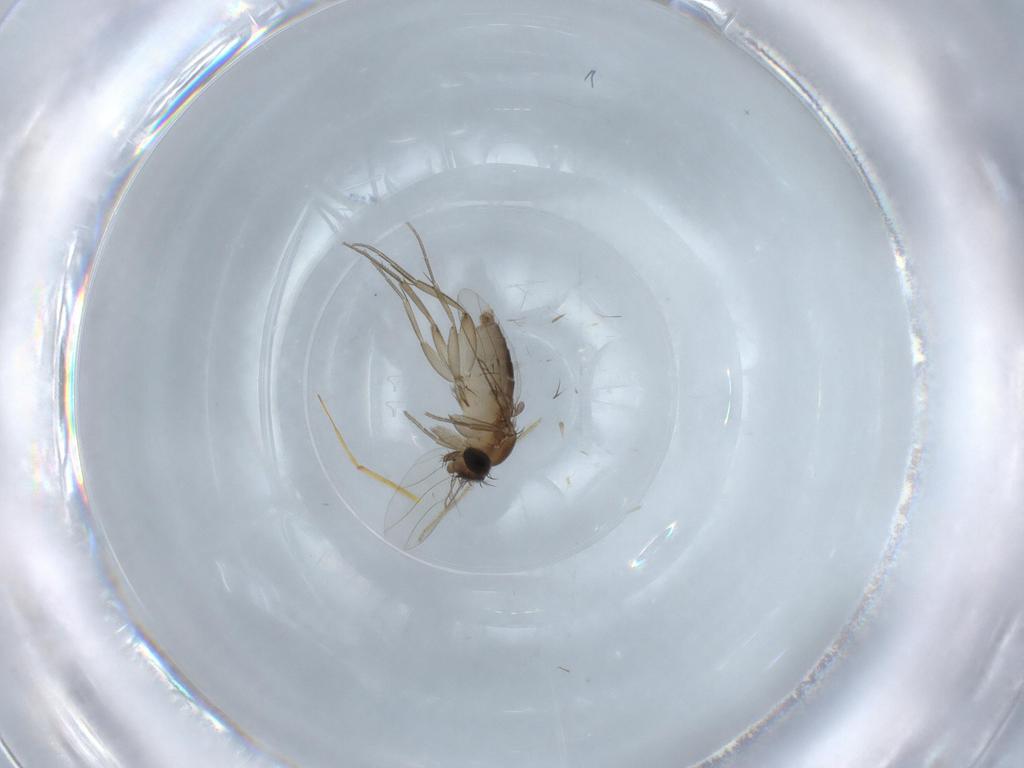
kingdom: Animalia
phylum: Arthropoda
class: Insecta
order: Diptera
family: Phoridae
